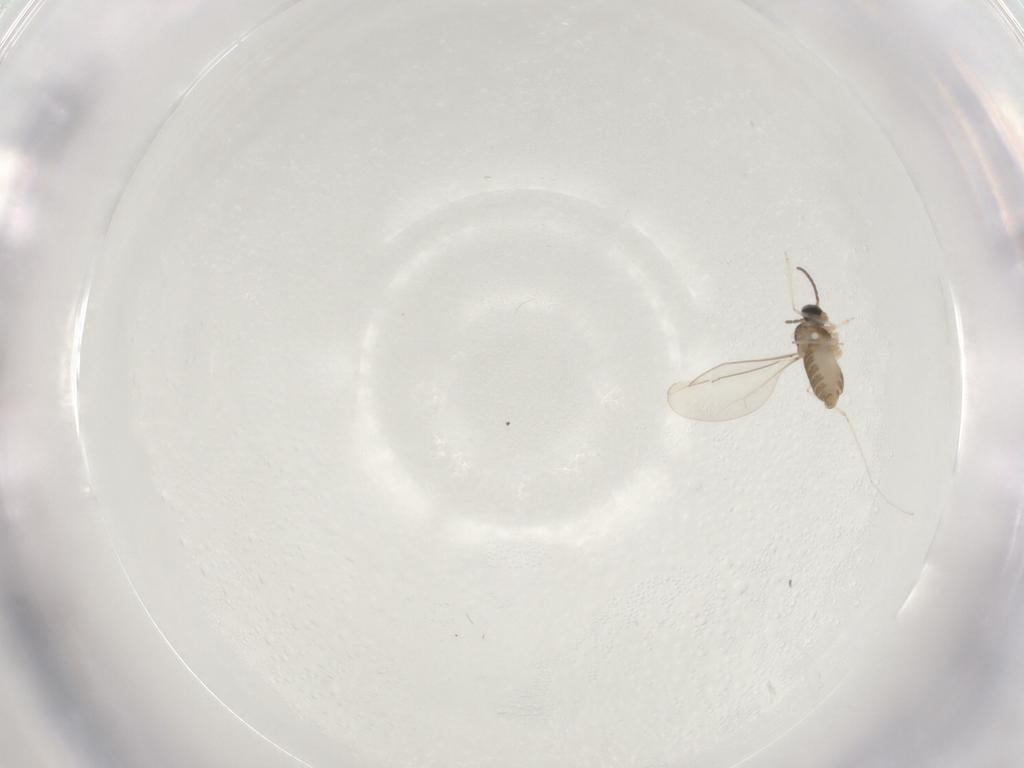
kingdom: Animalia
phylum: Arthropoda
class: Insecta
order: Diptera
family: Cecidomyiidae
